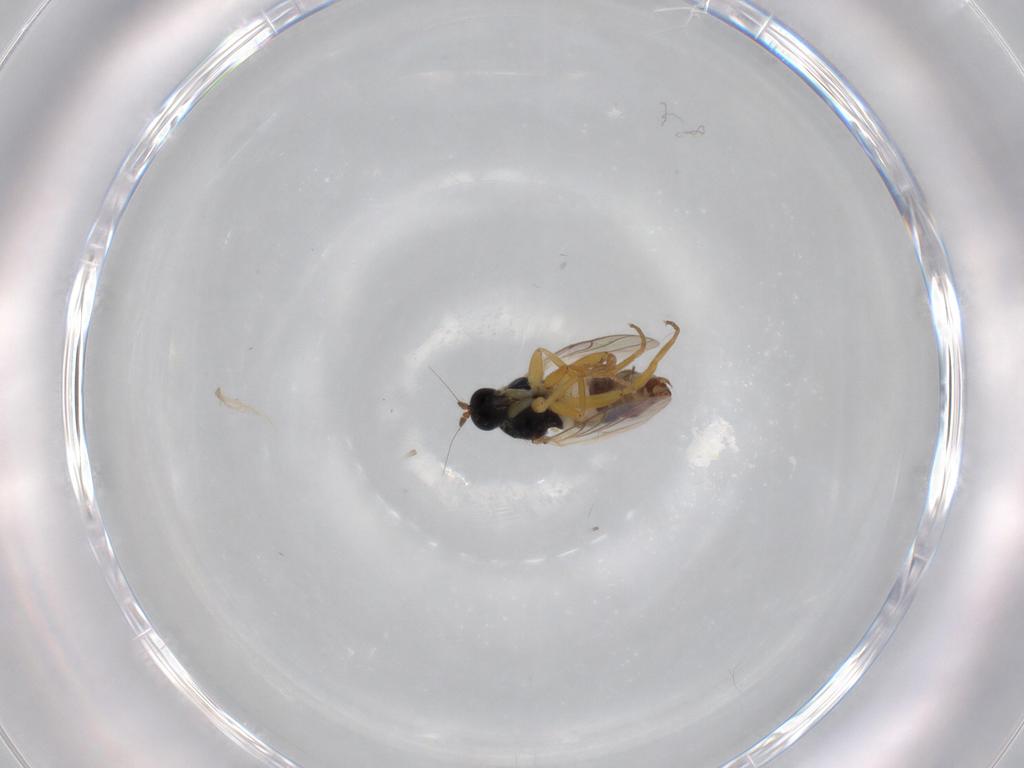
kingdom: Animalia
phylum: Arthropoda
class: Insecta
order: Diptera
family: Hybotidae
